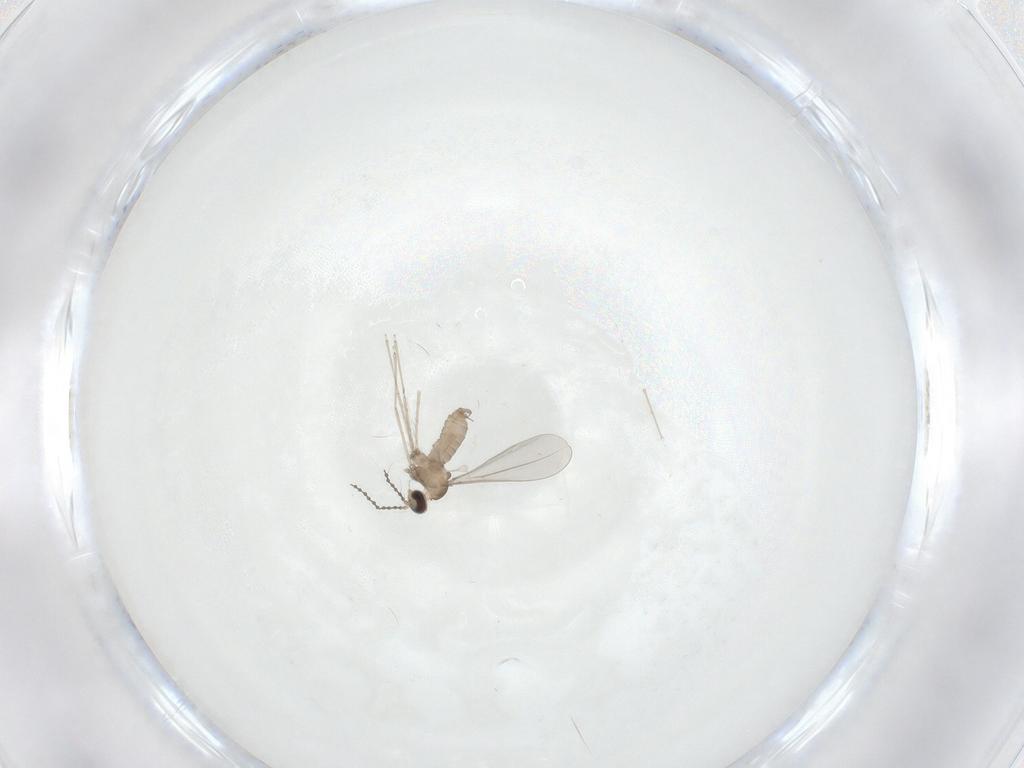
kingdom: Animalia
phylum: Arthropoda
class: Insecta
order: Diptera
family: Cecidomyiidae
